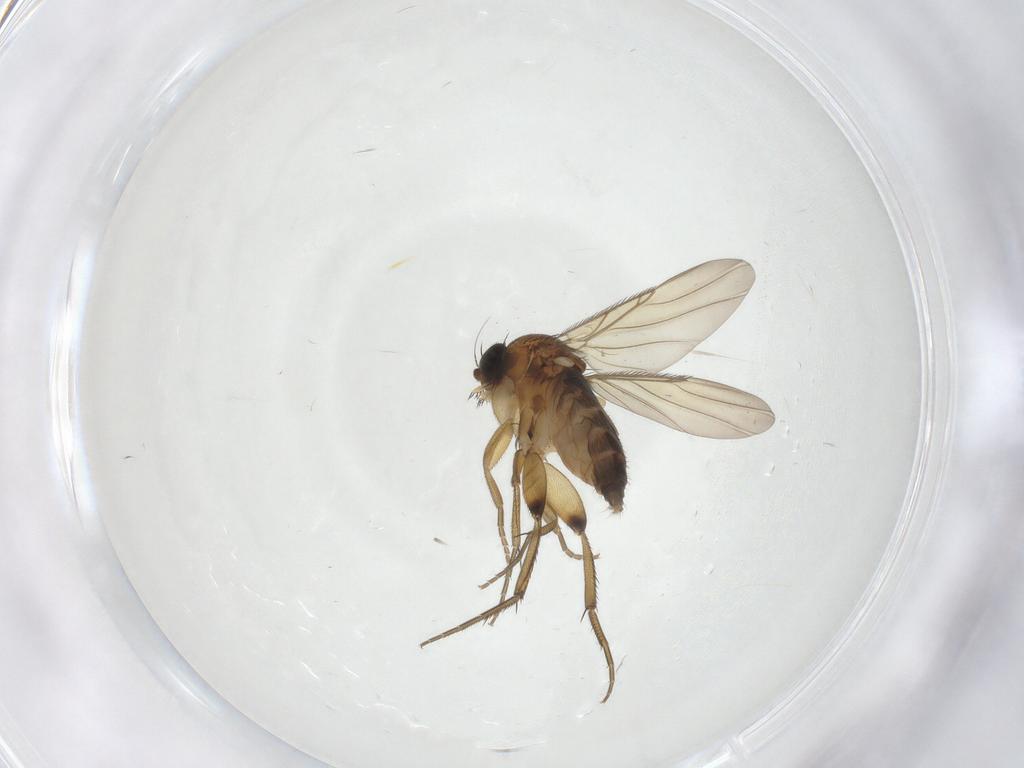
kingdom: Animalia
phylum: Arthropoda
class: Insecta
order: Diptera
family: Phoridae
